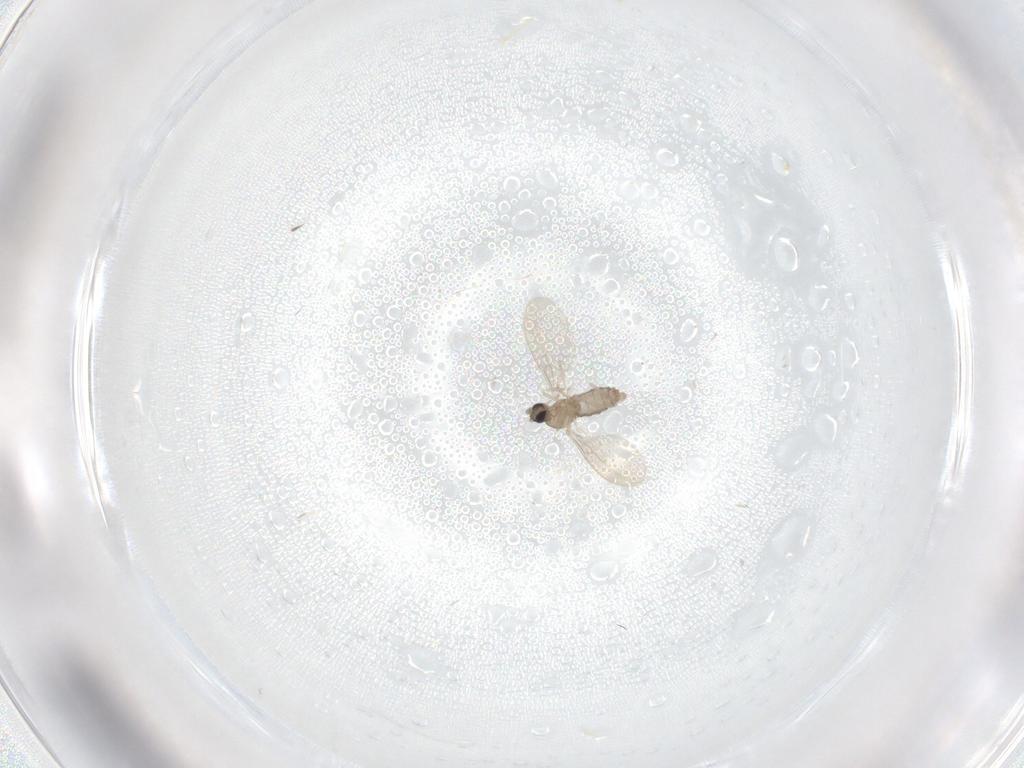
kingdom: Animalia
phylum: Arthropoda
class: Insecta
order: Diptera
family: Cecidomyiidae
